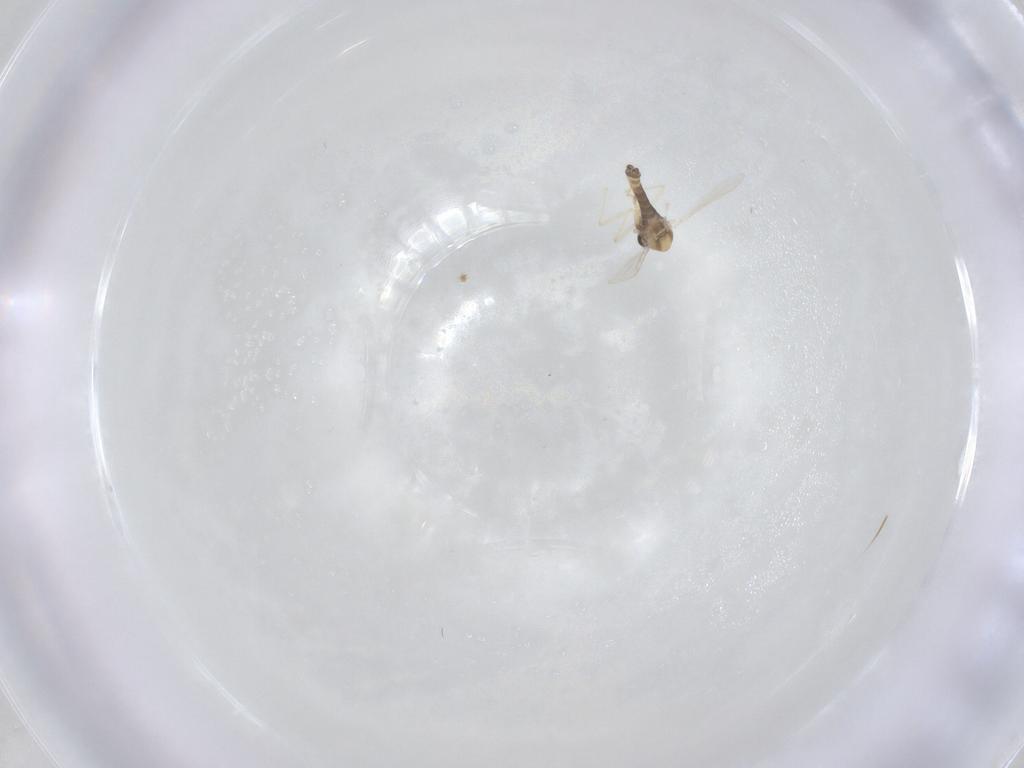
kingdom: Animalia
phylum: Arthropoda
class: Insecta
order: Diptera
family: Chironomidae
